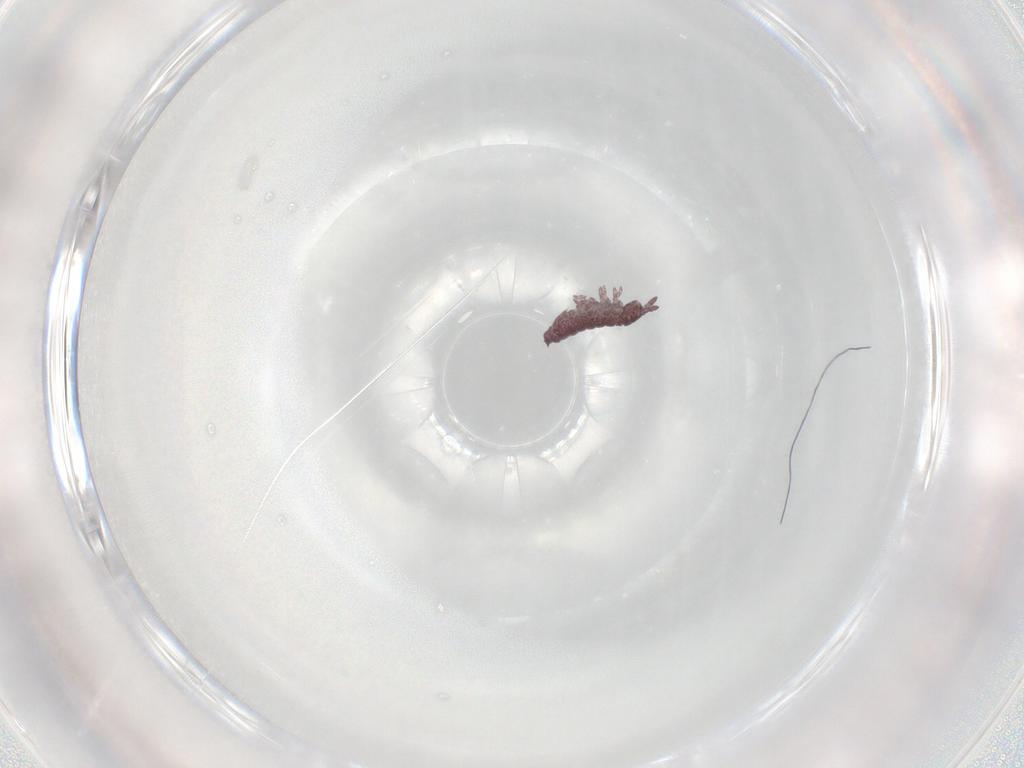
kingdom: Animalia
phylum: Arthropoda
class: Collembola
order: Poduromorpha
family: Hypogastruridae
